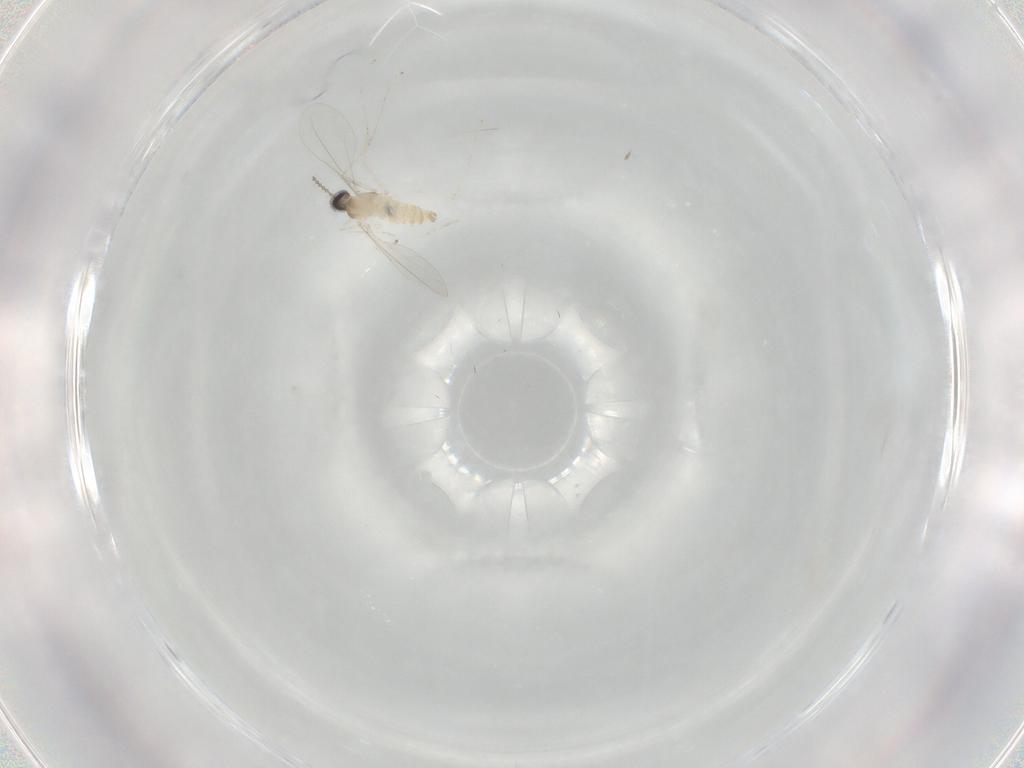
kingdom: Animalia
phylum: Arthropoda
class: Insecta
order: Diptera
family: Cecidomyiidae
